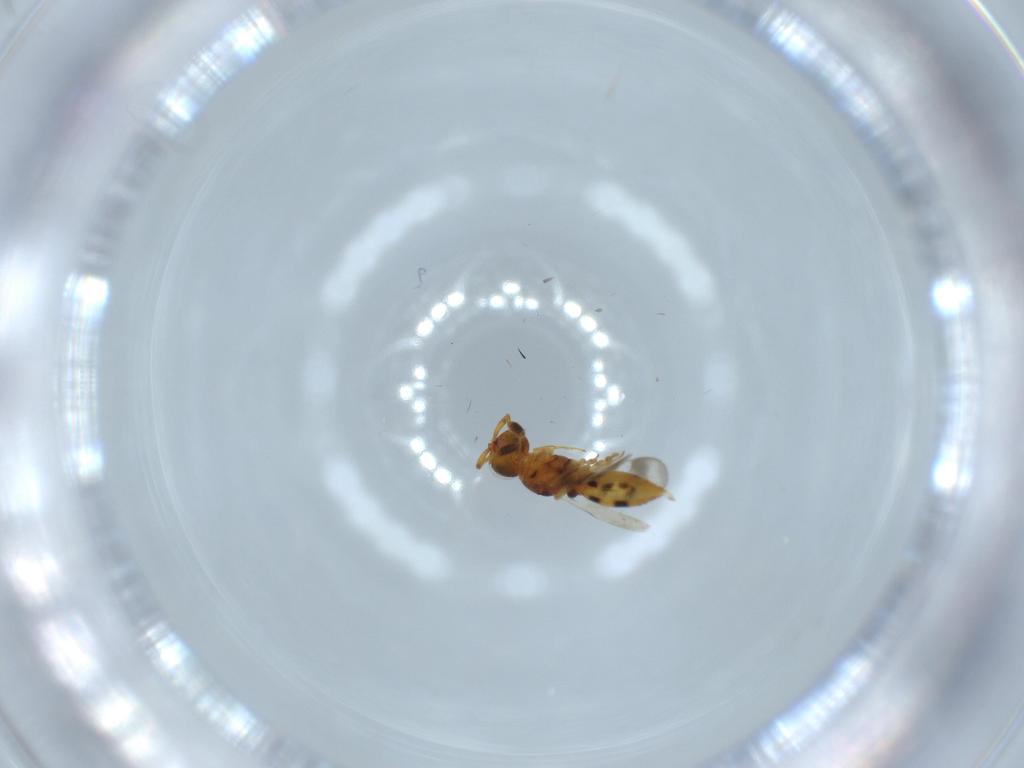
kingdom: Animalia
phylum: Arthropoda
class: Insecta
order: Hymenoptera
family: Scelionidae
